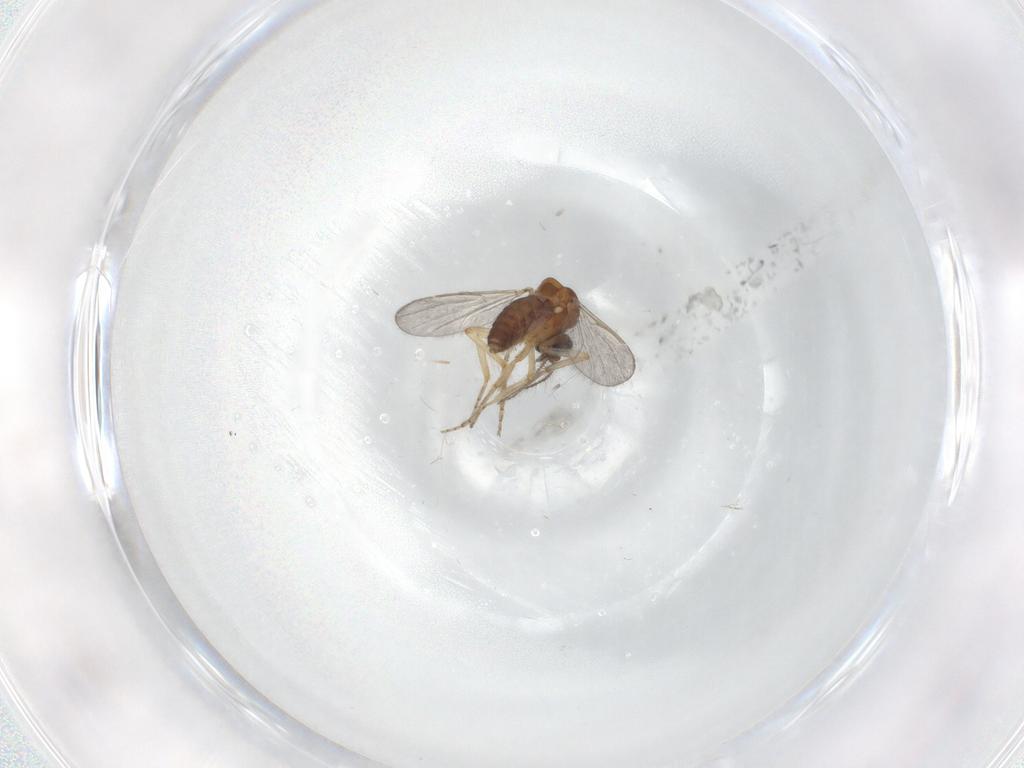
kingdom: Animalia
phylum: Arthropoda
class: Insecta
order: Diptera
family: Ceratopogonidae
